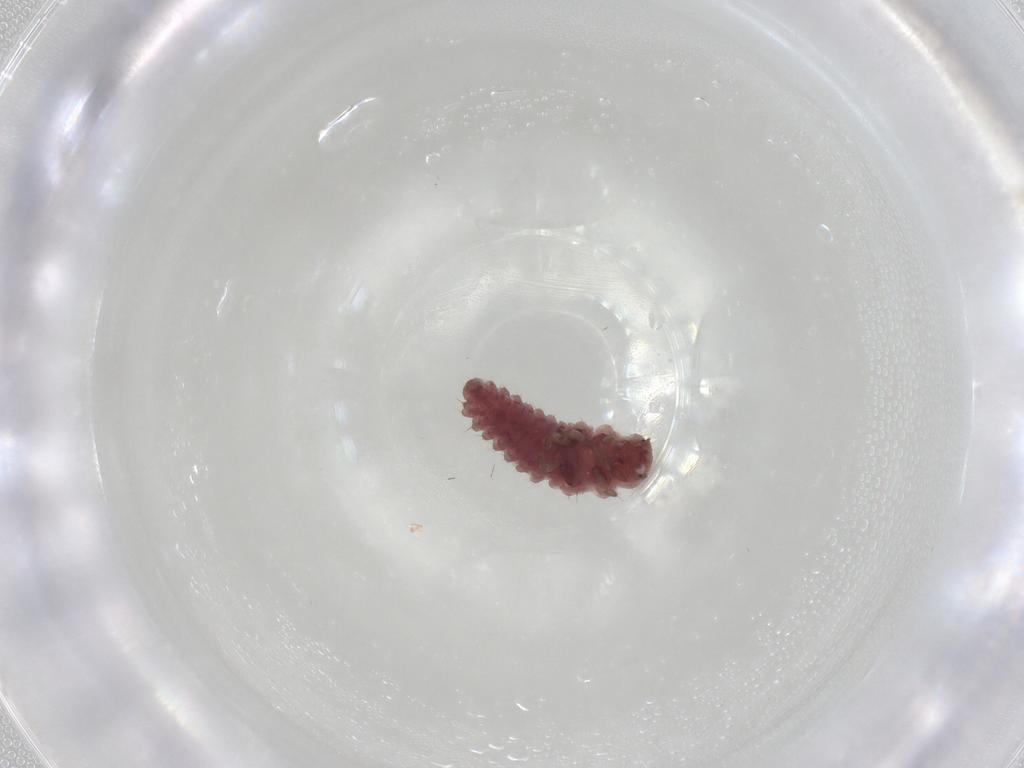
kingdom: Animalia
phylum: Arthropoda
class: Insecta
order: Coleoptera
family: Coccinellidae
